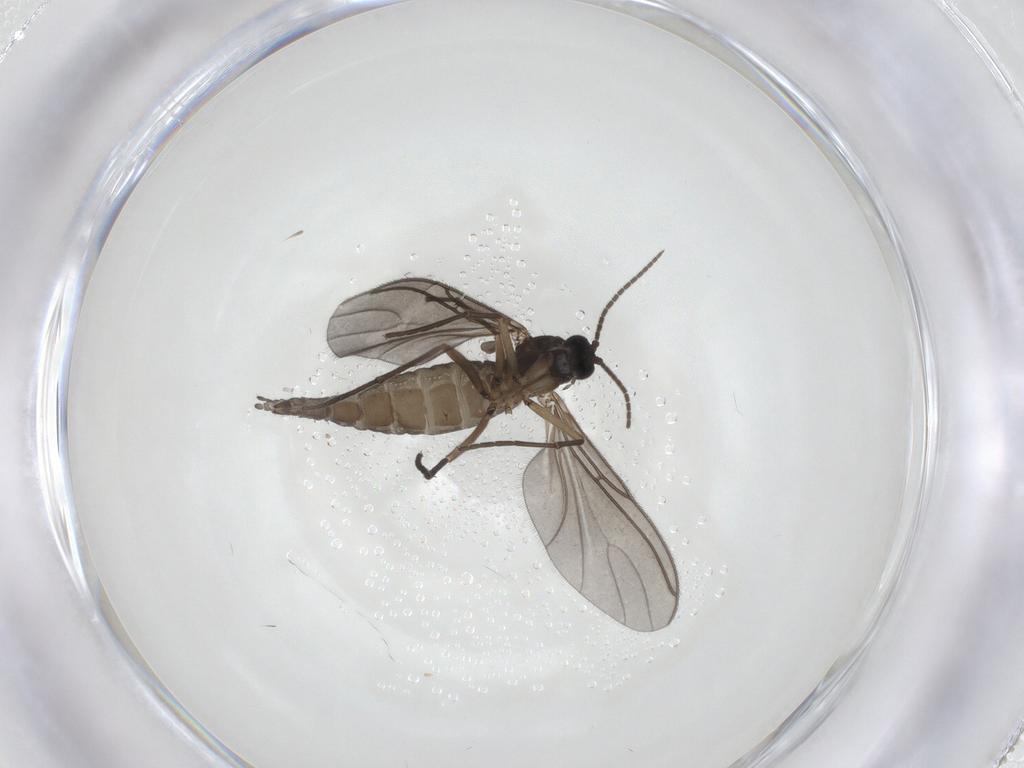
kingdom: Animalia
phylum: Arthropoda
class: Insecta
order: Diptera
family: Sciaridae
